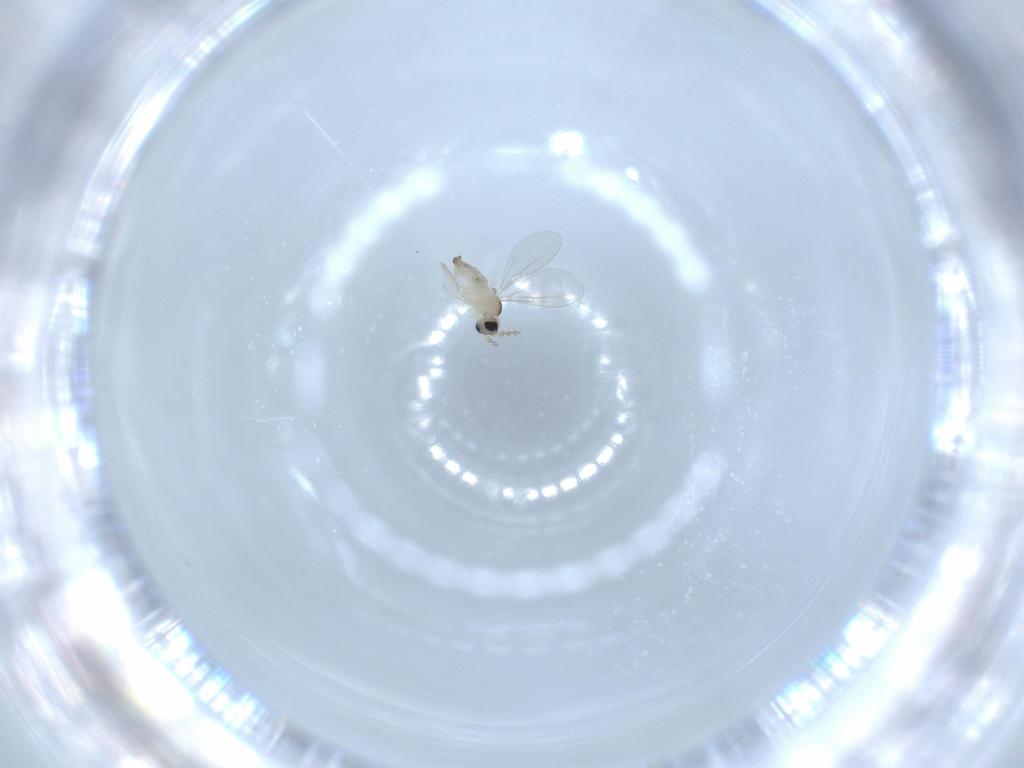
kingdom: Animalia
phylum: Arthropoda
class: Insecta
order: Diptera
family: Cecidomyiidae
